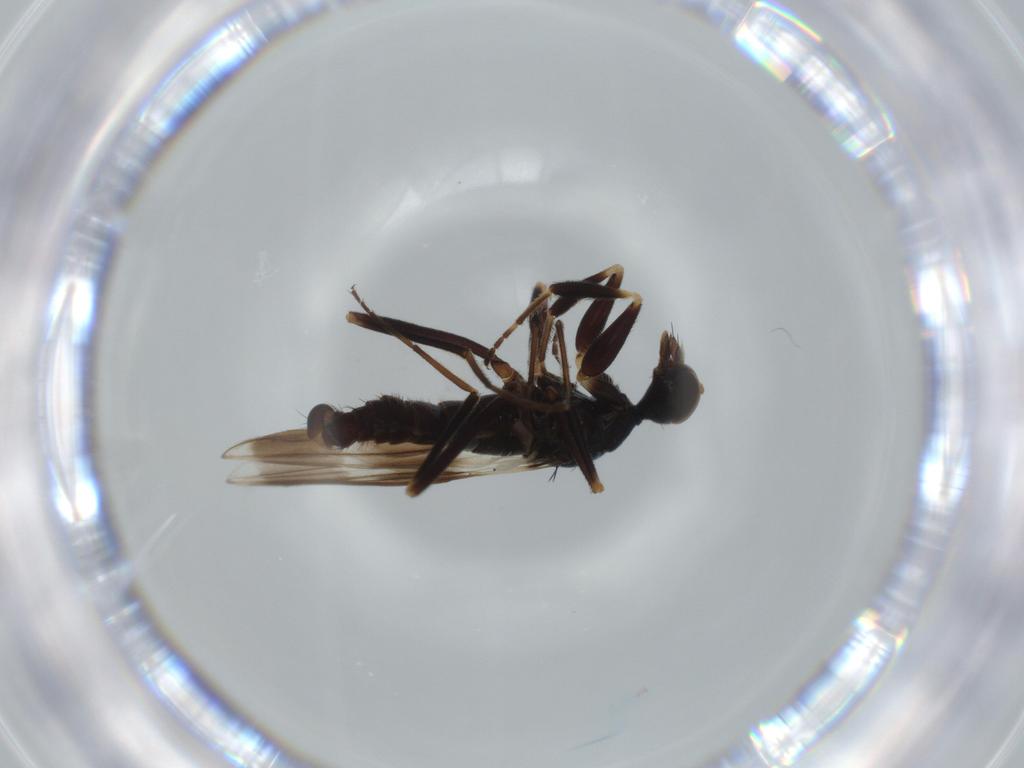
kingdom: Animalia
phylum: Arthropoda
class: Insecta
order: Diptera
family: Hybotidae
